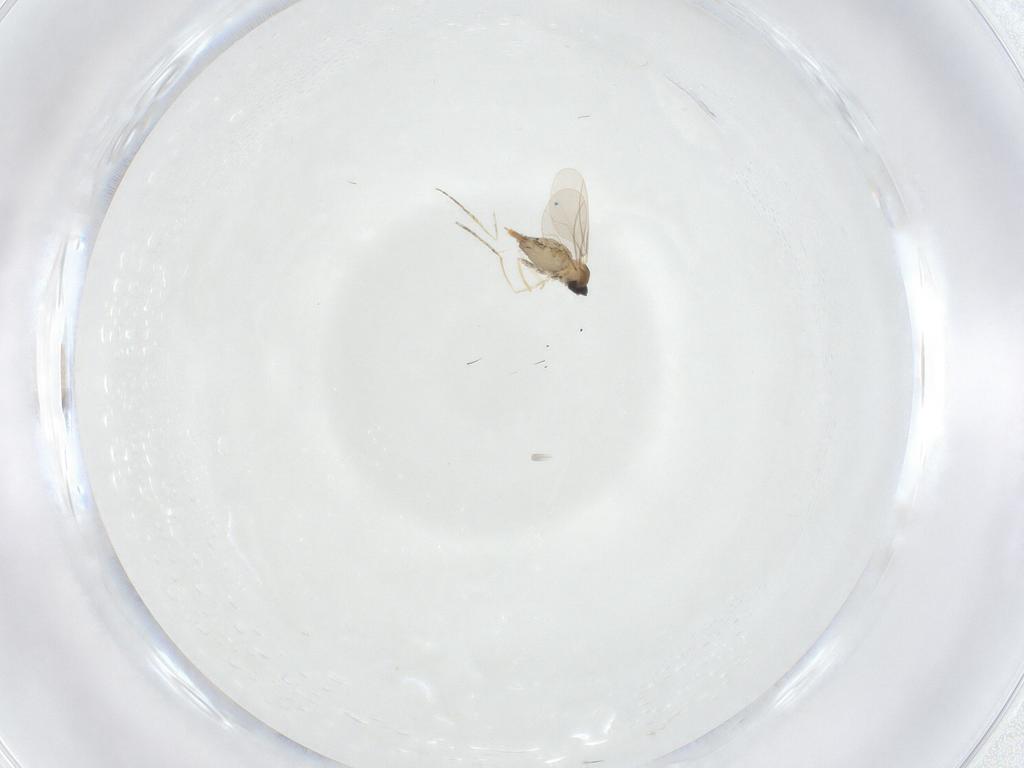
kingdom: Animalia
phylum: Arthropoda
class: Insecta
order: Diptera
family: Cecidomyiidae
